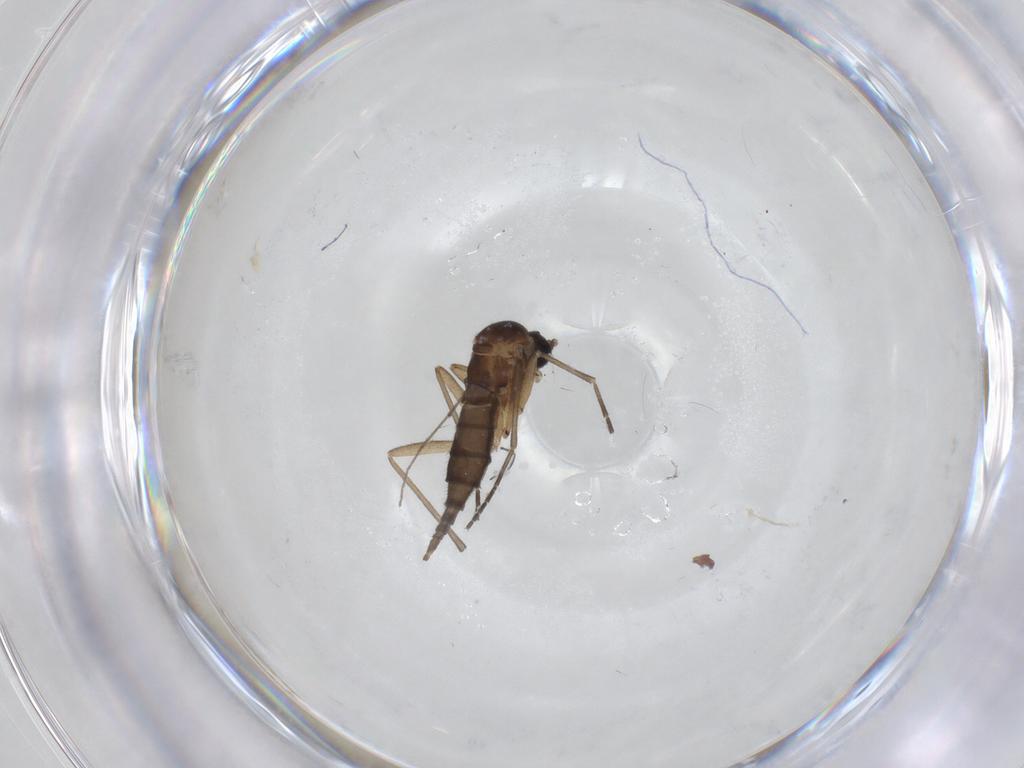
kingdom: Animalia
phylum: Arthropoda
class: Insecta
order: Diptera
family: Sciaridae
